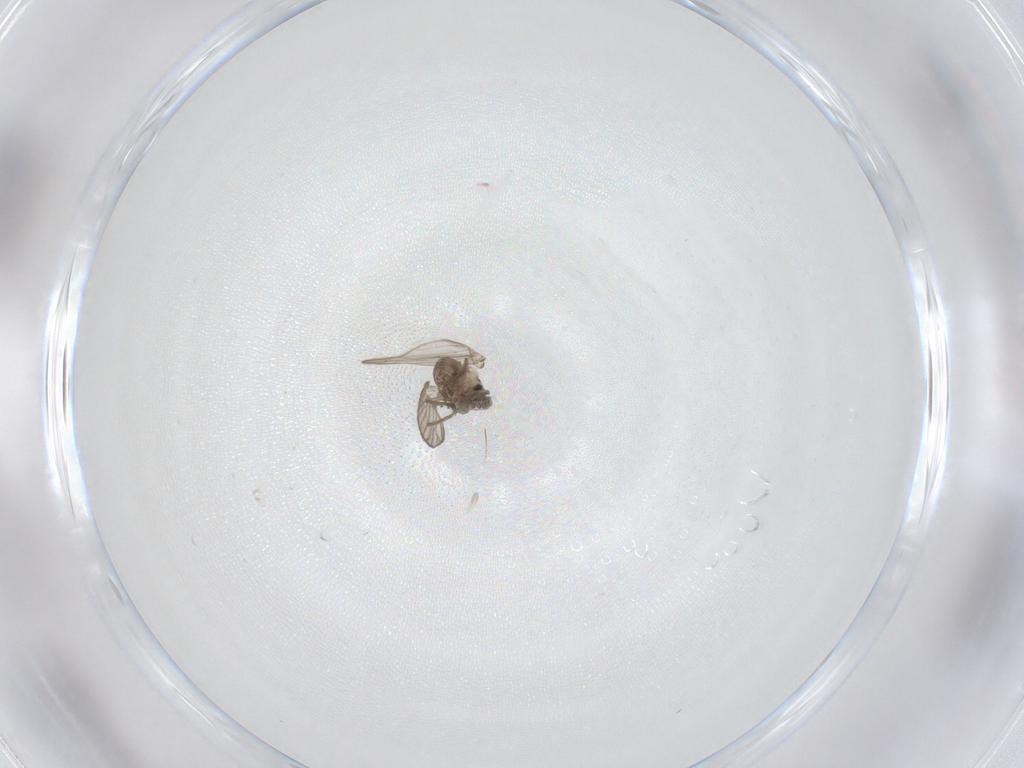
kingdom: Animalia
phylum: Arthropoda
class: Insecta
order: Diptera
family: Psychodidae
